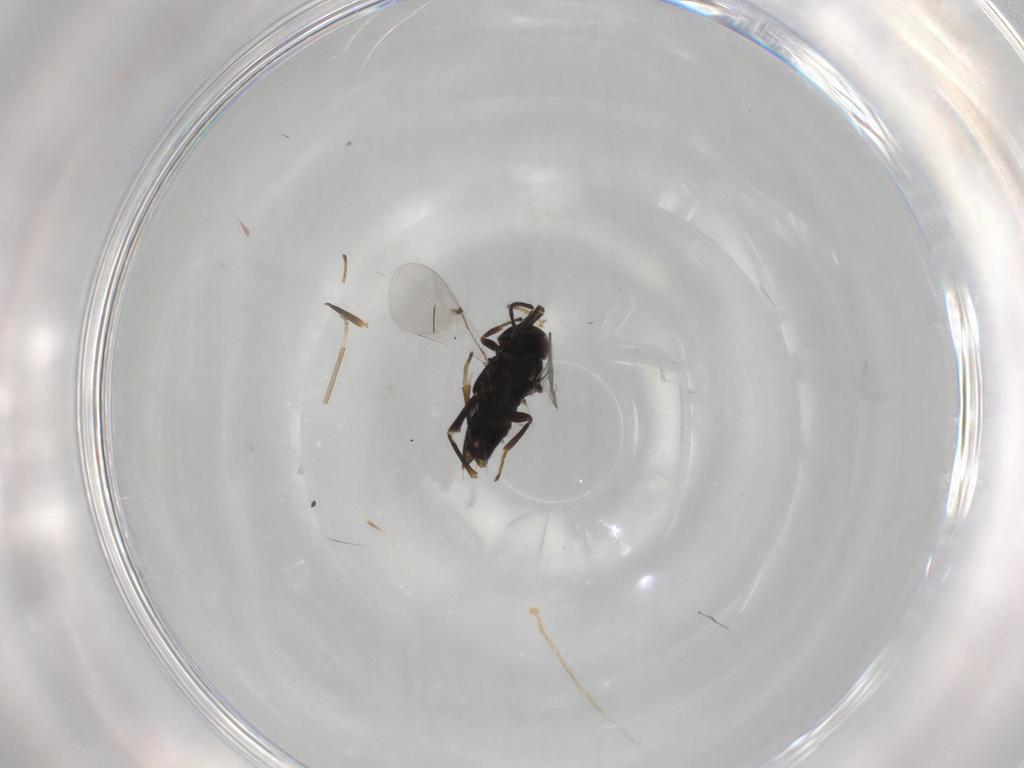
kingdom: Animalia
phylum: Arthropoda
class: Insecta
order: Hymenoptera
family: Encyrtidae
